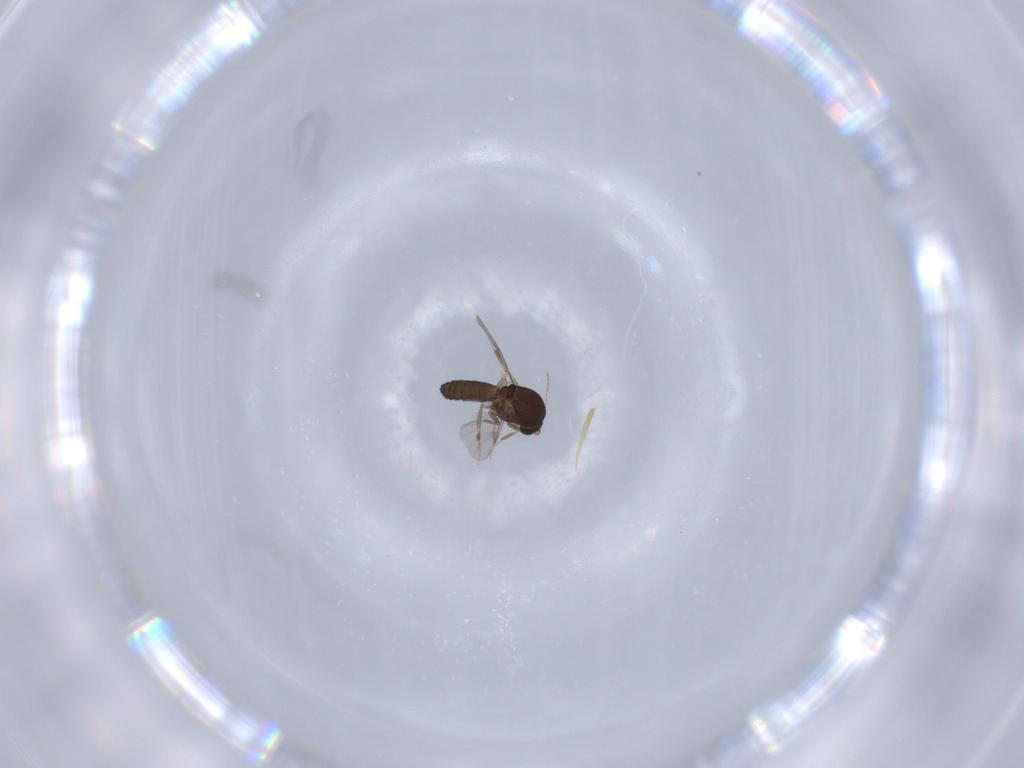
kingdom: Animalia
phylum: Arthropoda
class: Insecta
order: Diptera
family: Ceratopogonidae
